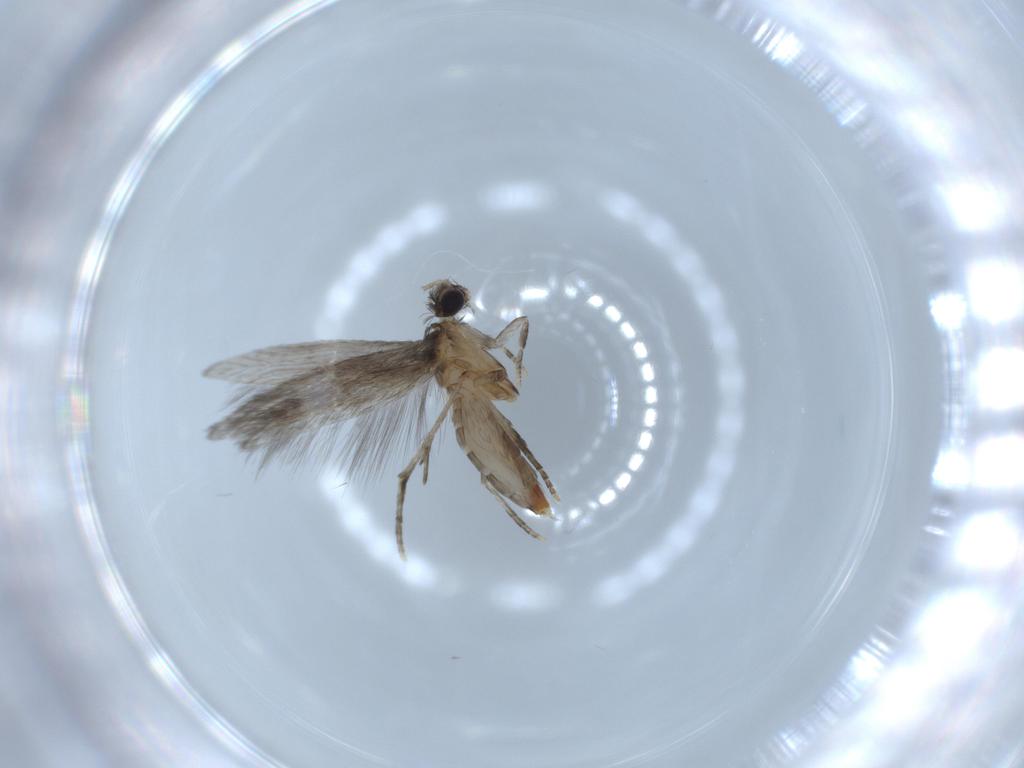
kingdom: Animalia
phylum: Arthropoda
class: Insecta
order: Trichoptera
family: Hydroptilidae
